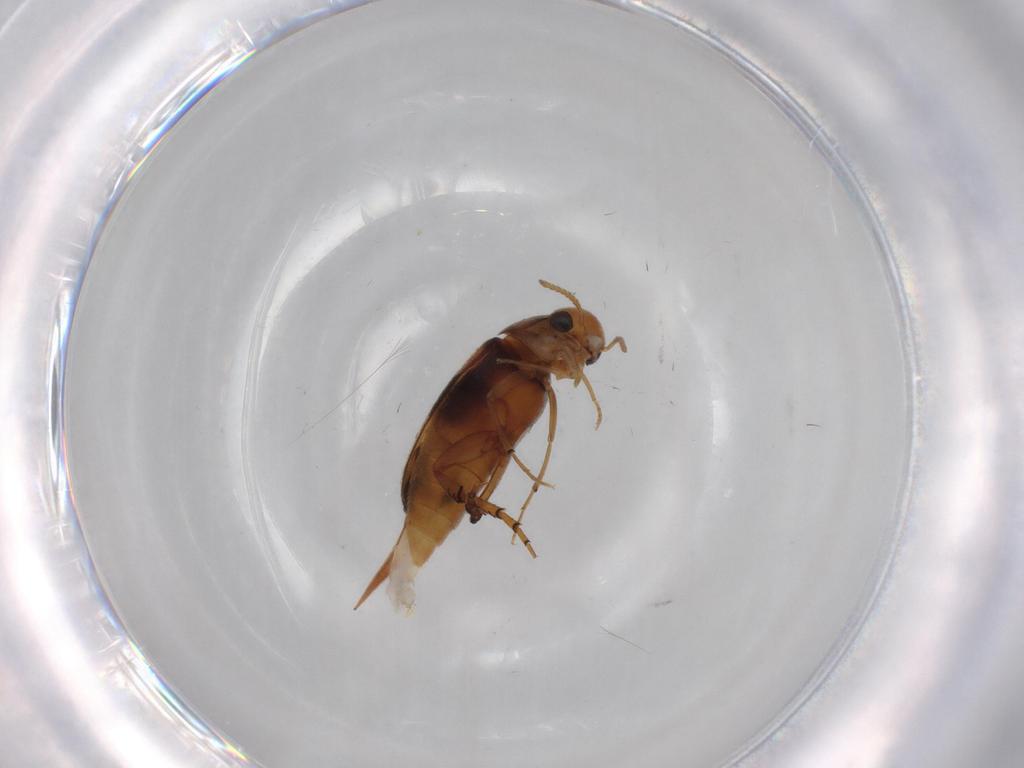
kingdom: Animalia
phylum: Arthropoda
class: Insecta
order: Coleoptera
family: Mordellidae
